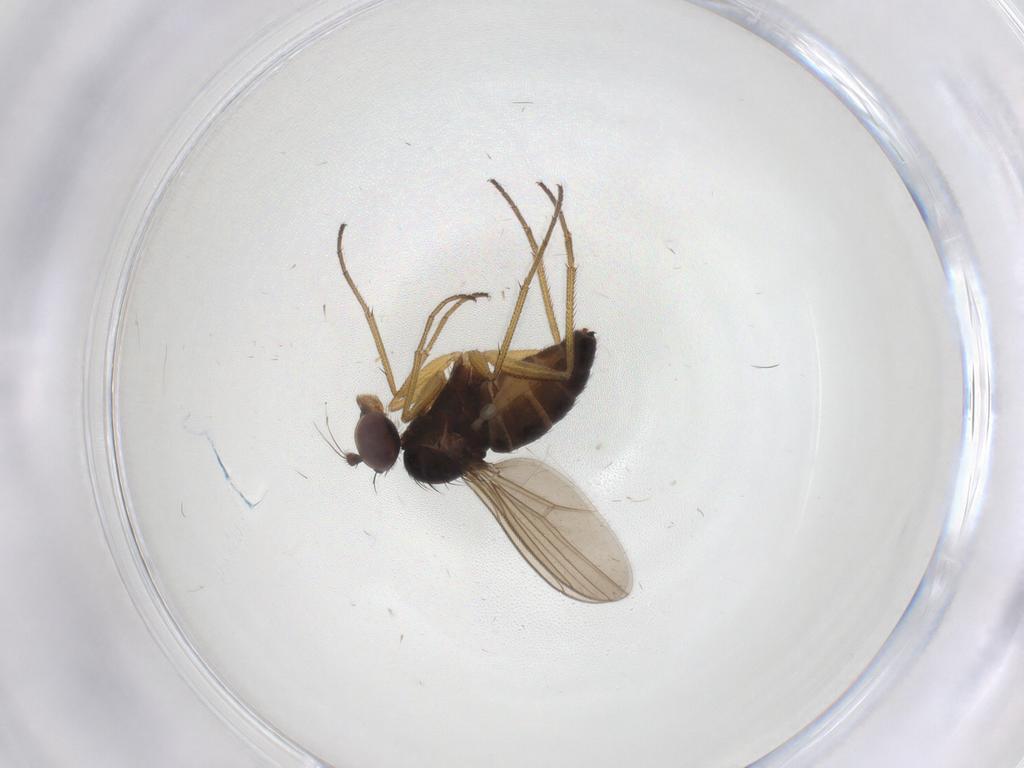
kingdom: Animalia
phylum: Arthropoda
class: Insecta
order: Diptera
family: Dolichopodidae
